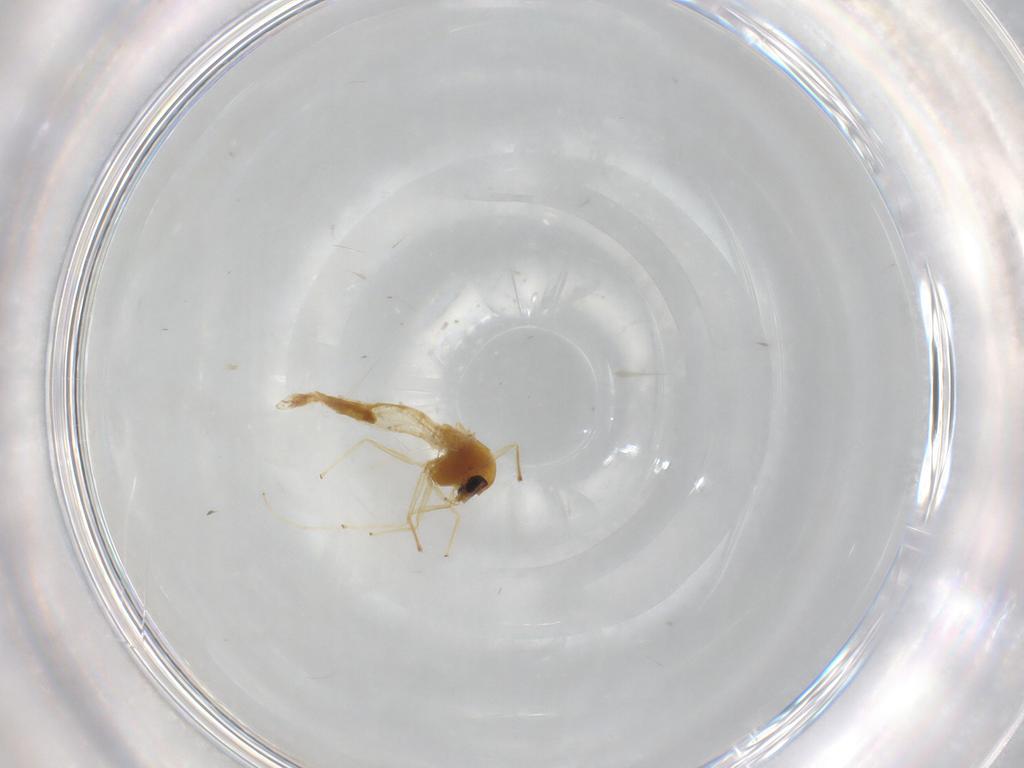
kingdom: Animalia
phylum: Arthropoda
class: Insecta
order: Diptera
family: Chironomidae
